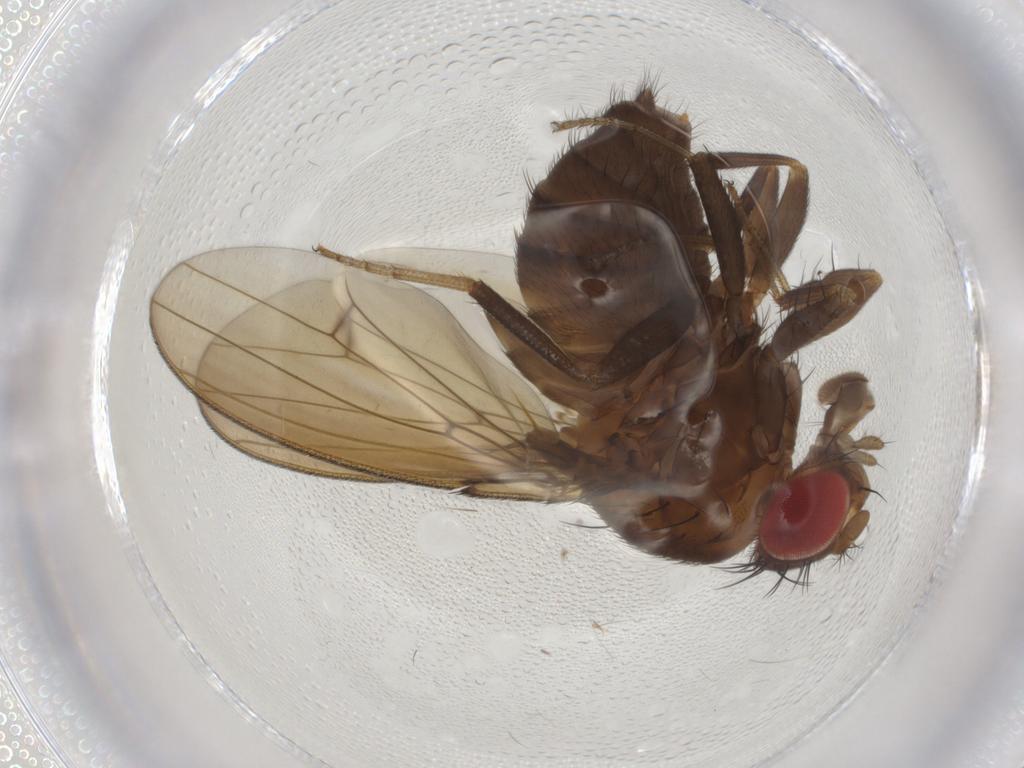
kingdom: Animalia
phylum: Arthropoda
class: Insecta
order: Diptera
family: Drosophilidae
